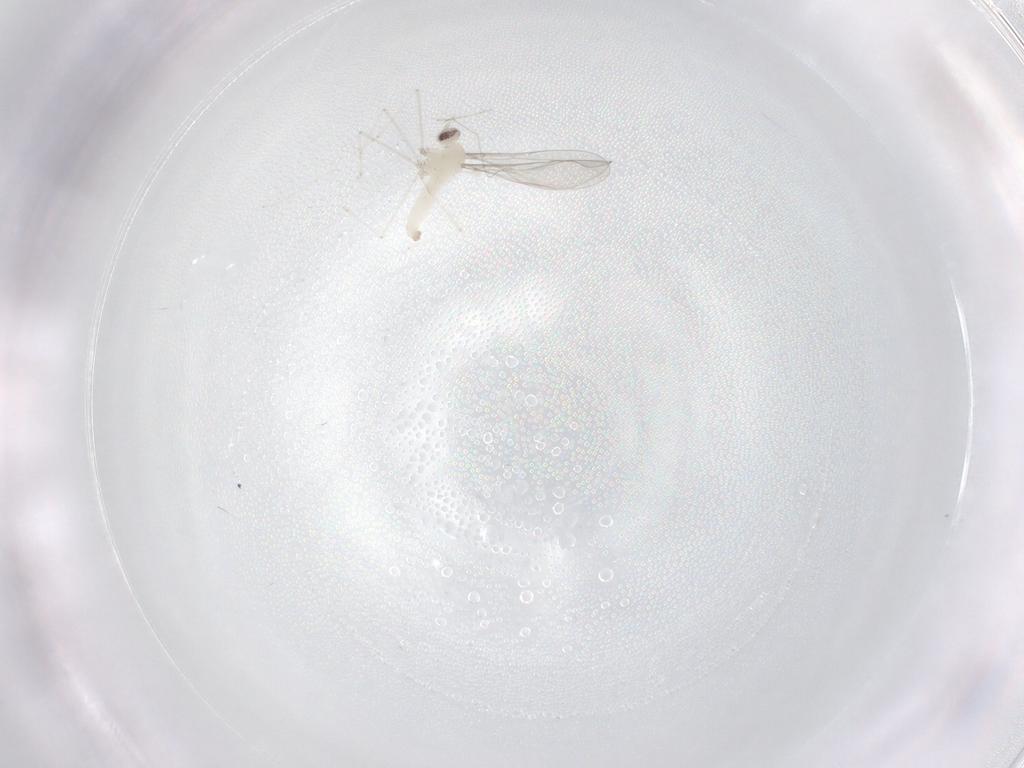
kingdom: Animalia
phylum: Arthropoda
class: Insecta
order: Diptera
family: Cecidomyiidae
